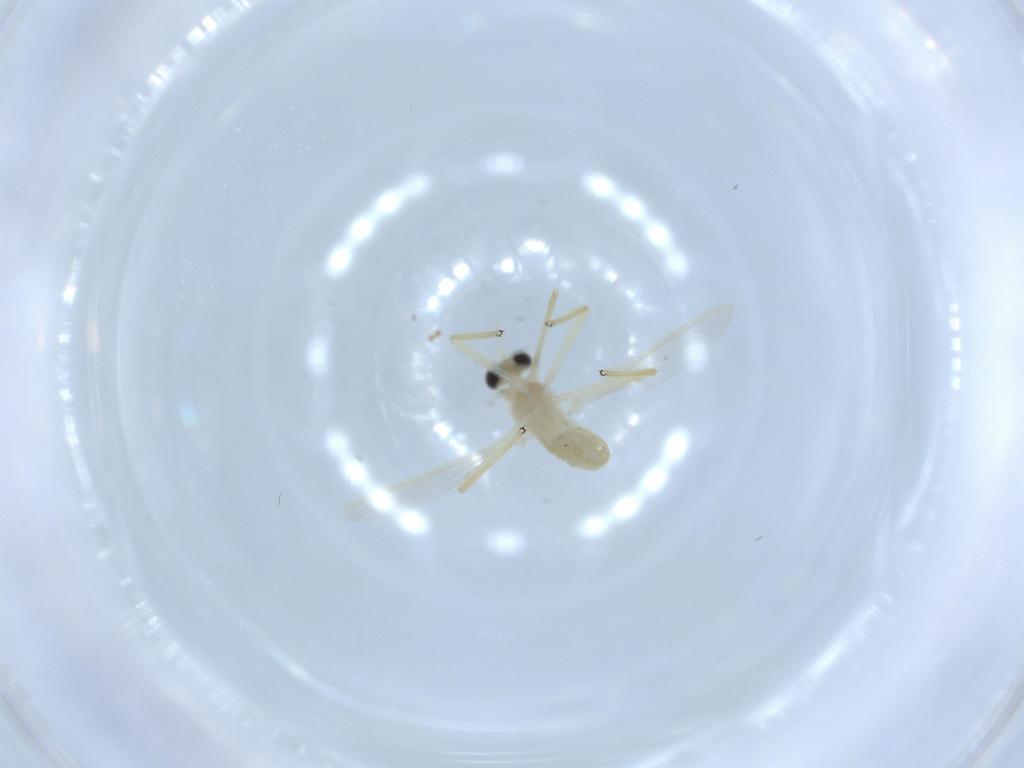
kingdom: Animalia
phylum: Arthropoda
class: Insecta
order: Diptera
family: Chironomidae
